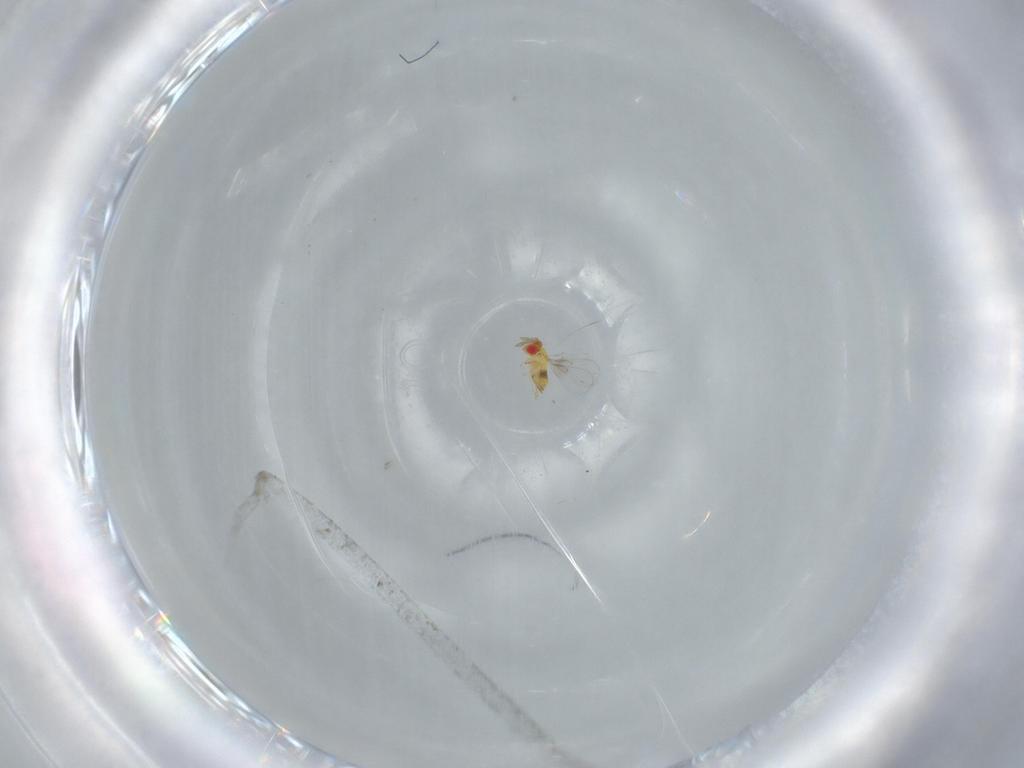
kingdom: Animalia
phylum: Arthropoda
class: Insecta
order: Hymenoptera
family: Trichogrammatidae
